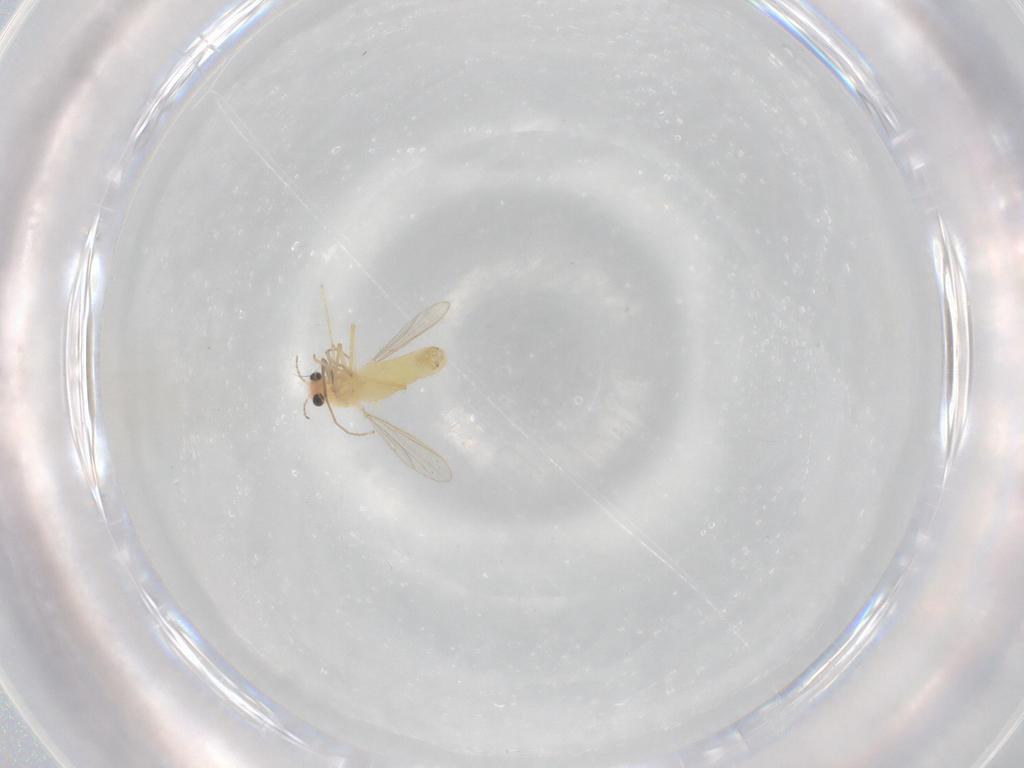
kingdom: Animalia
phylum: Arthropoda
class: Insecta
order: Diptera
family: Chironomidae
